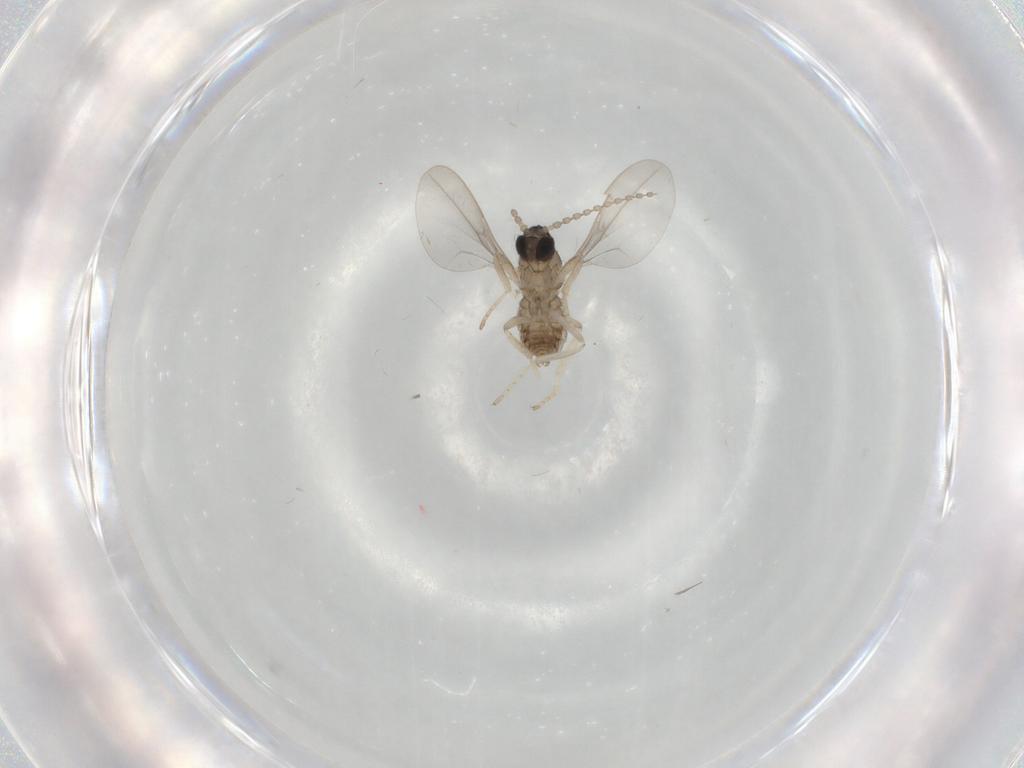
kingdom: Animalia
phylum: Arthropoda
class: Insecta
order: Diptera
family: Cecidomyiidae
